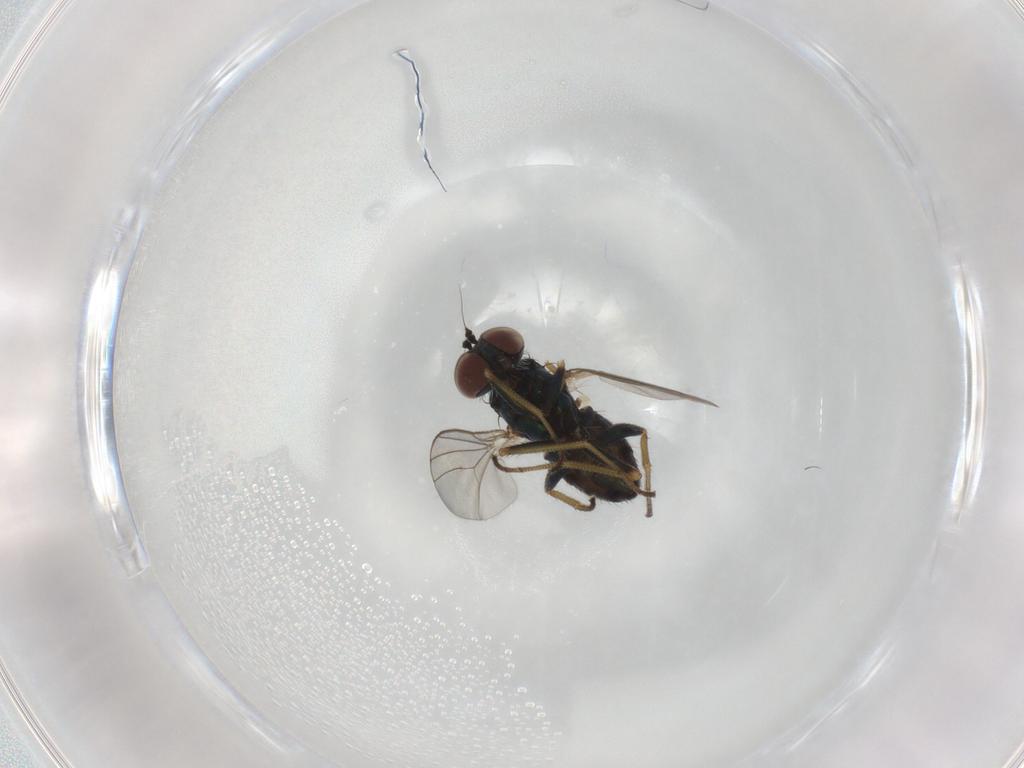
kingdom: Animalia
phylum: Arthropoda
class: Insecta
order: Diptera
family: Dolichopodidae
